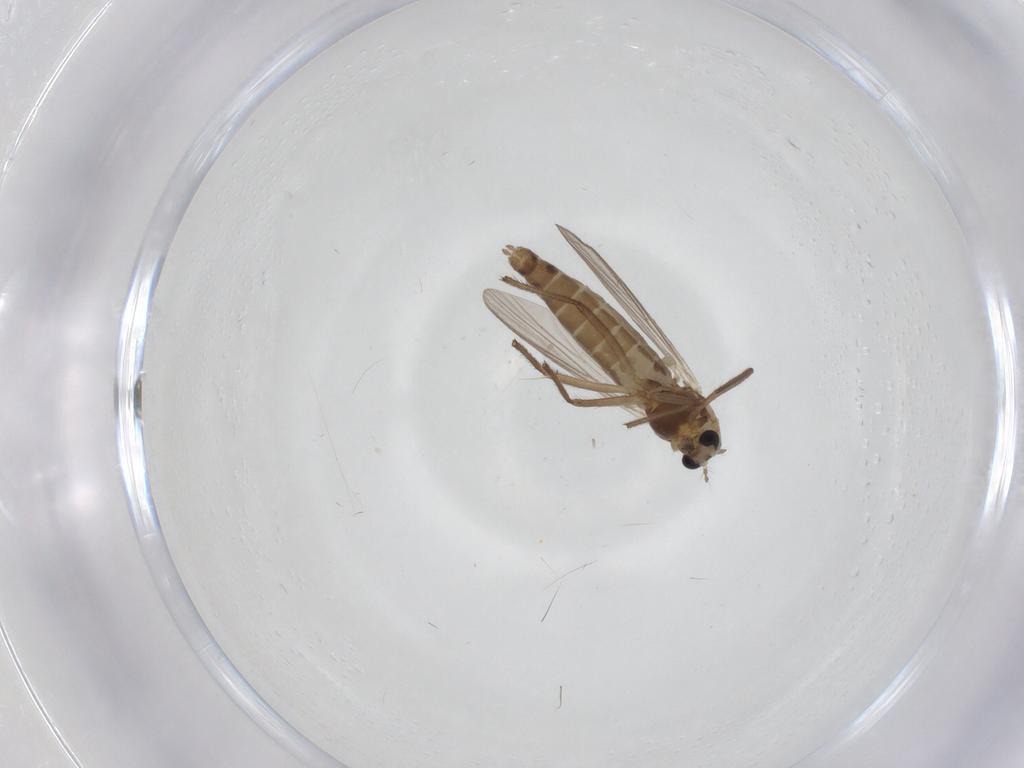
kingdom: Animalia
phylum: Arthropoda
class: Insecta
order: Diptera
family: Chironomidae
